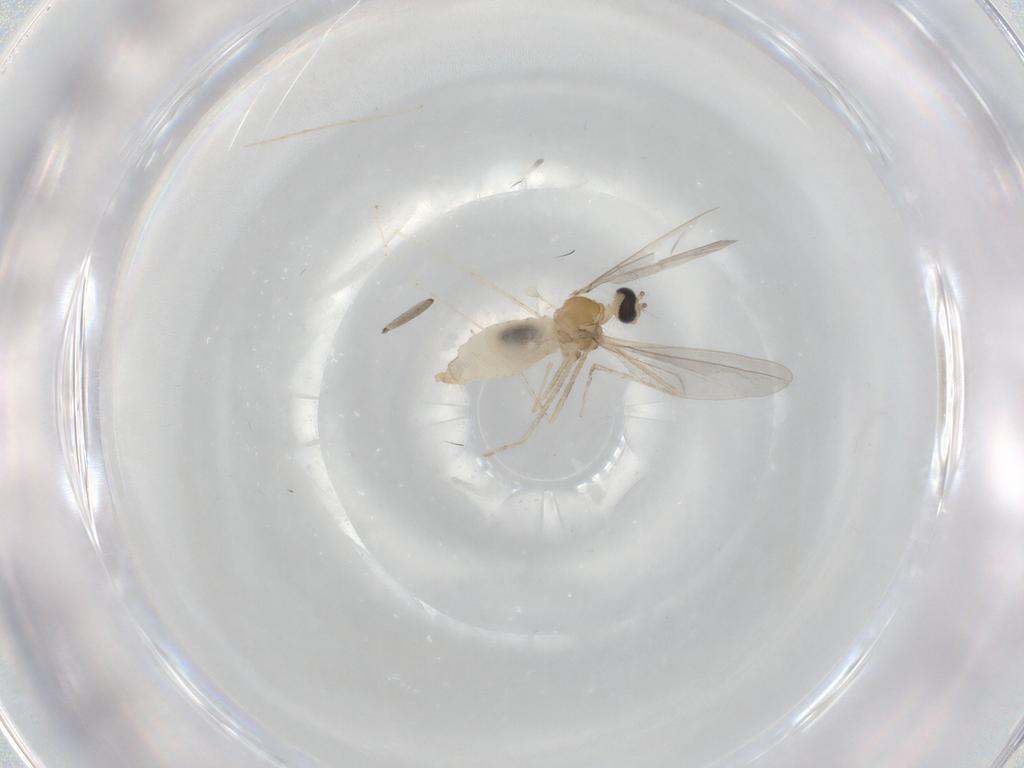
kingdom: Animalia
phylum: Arthropoda
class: Insecta
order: Diptera
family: Cecidomyiidae
